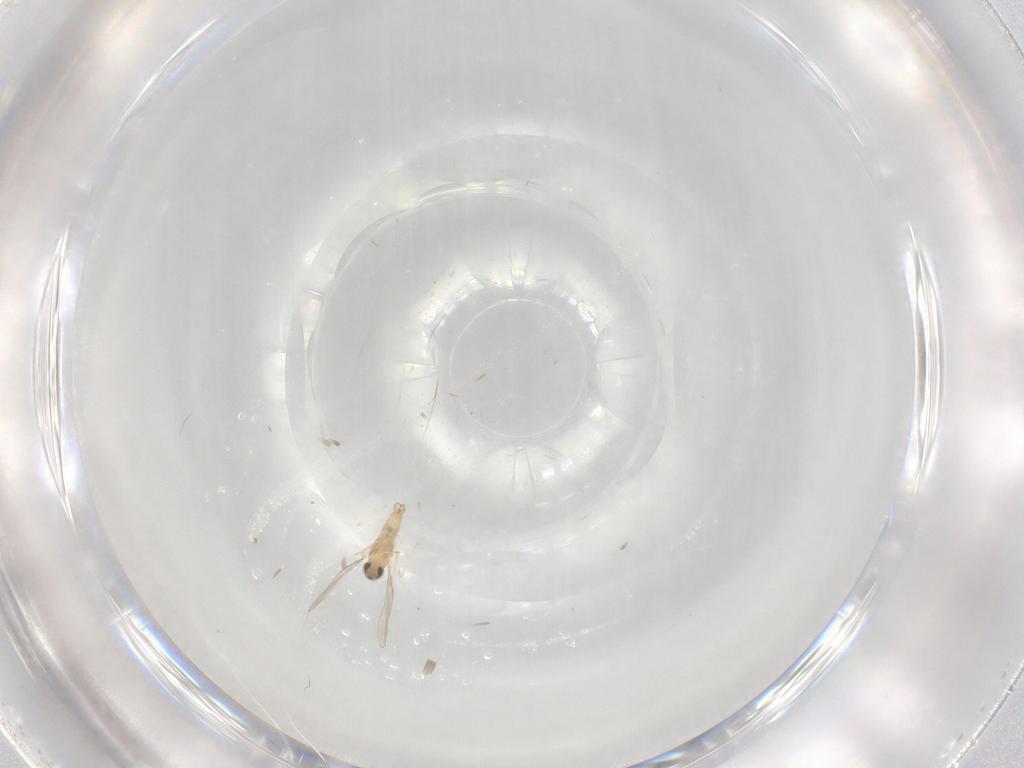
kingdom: Animalia
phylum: Arthropoda
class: Insecta
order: Diptera
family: Cecidomyiidae
